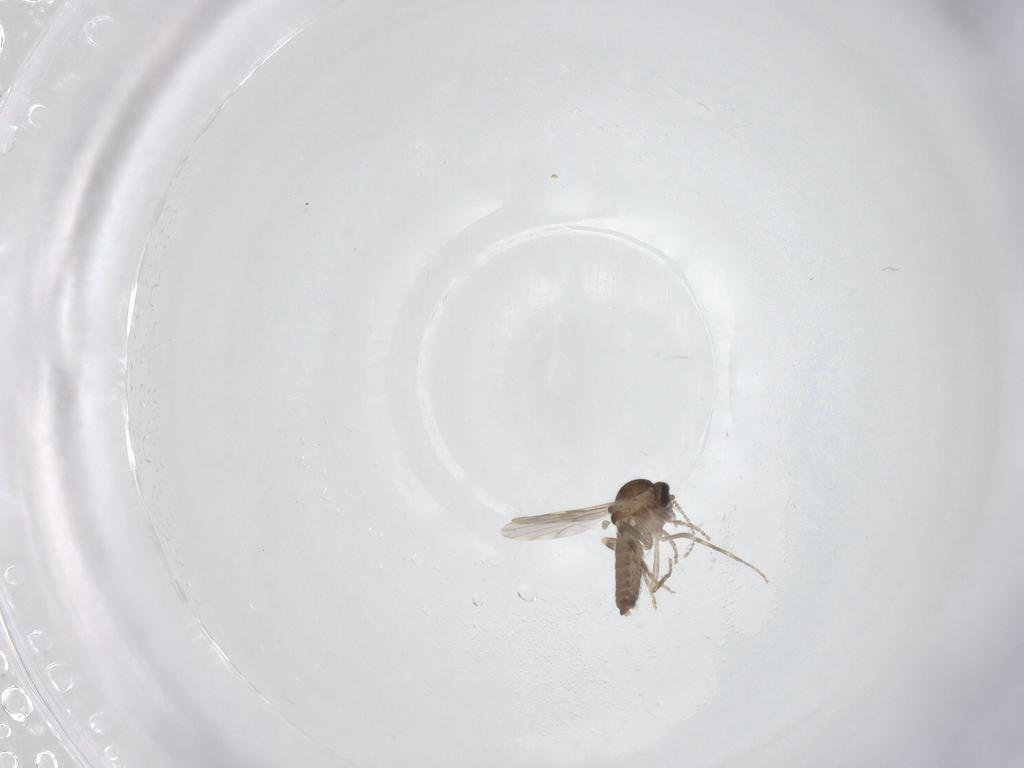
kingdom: Animalia
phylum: Arthropoda
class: Insecta
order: Diptera
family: Ceratopogonidae
